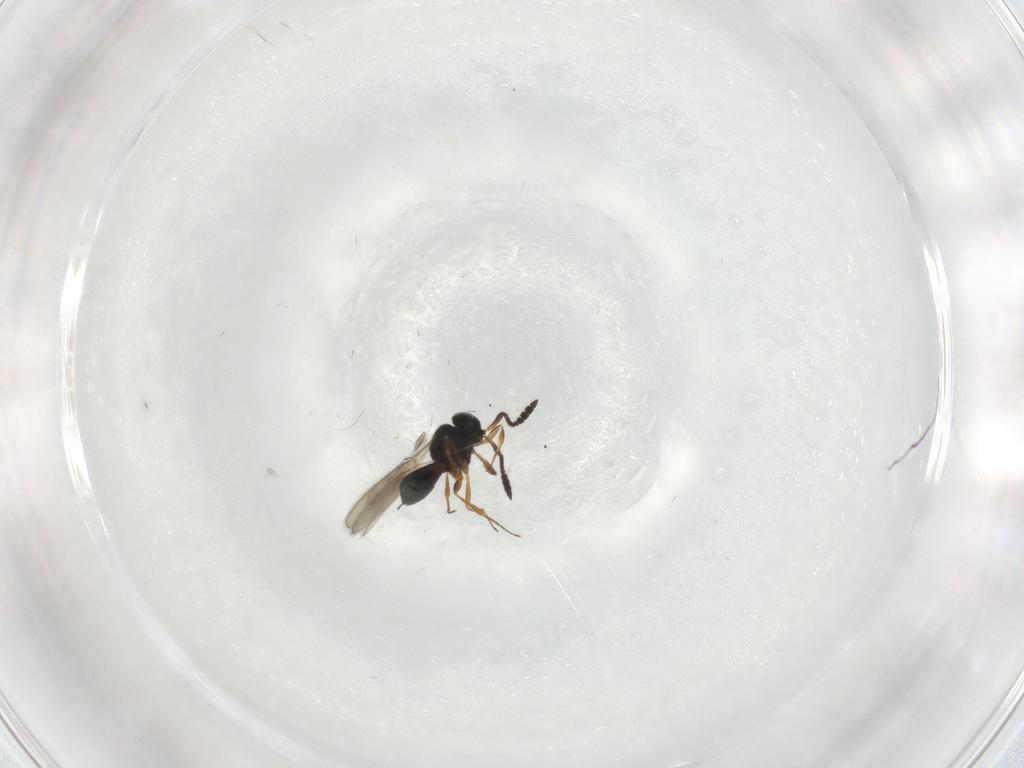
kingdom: Animalia
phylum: Arthropoda
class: Insecta
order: Hymenoptera
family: Scelionidae
